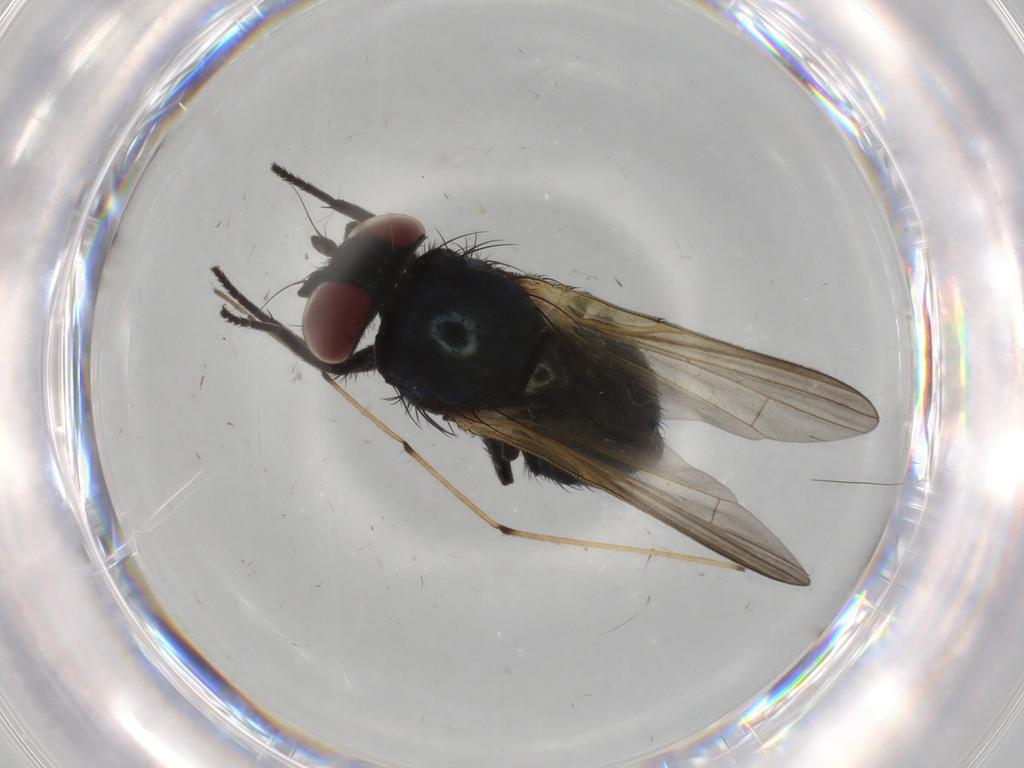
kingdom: Animalia
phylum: Arthropoda
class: Insecta
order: Diptera
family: Chironomidae
